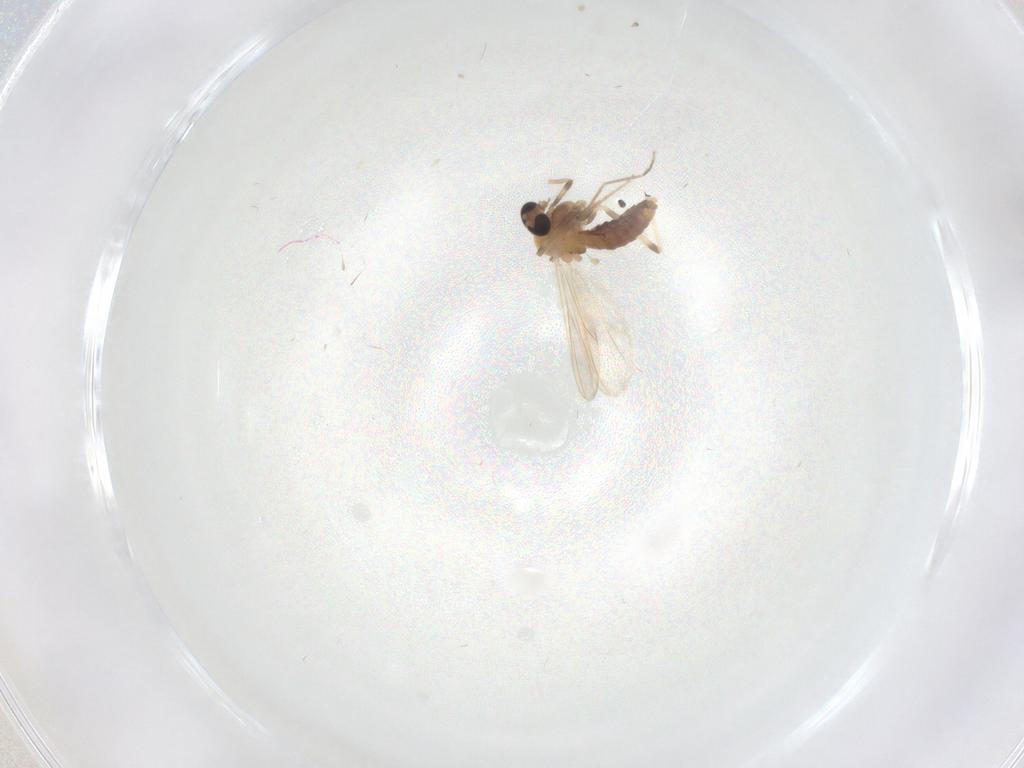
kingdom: Animalia
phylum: Arthropoda
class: Insecta
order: Diptera
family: Chironomidae
